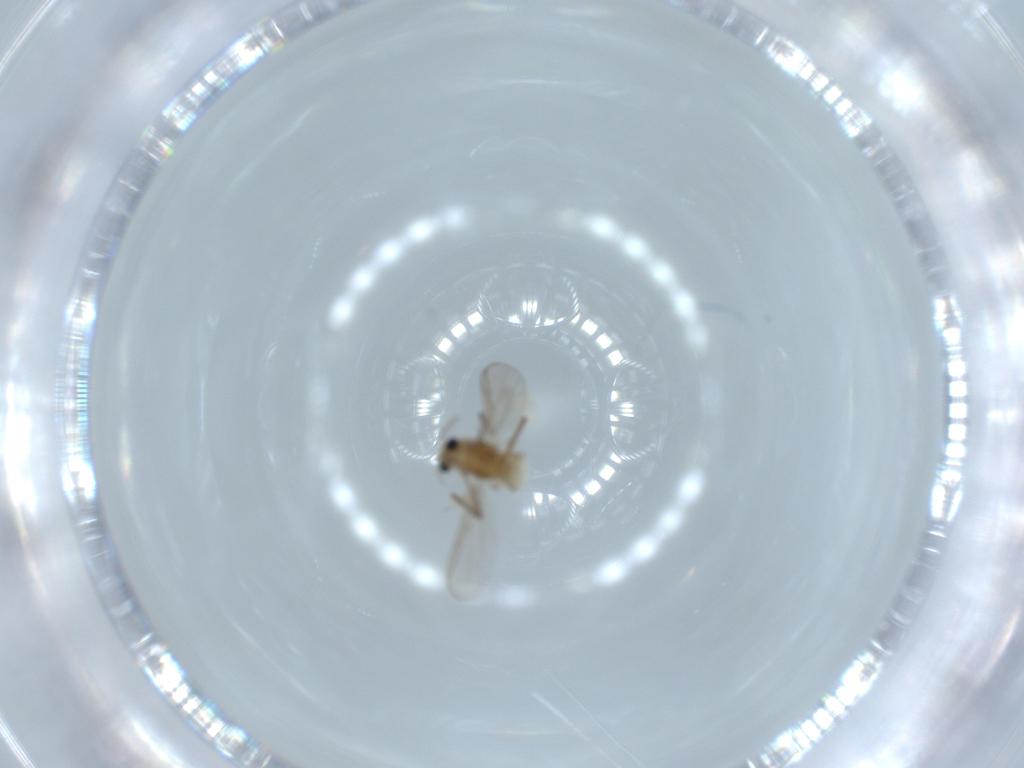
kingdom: Animalia
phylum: Arthropoda
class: Insecta
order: Diptera
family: Chironomidae
